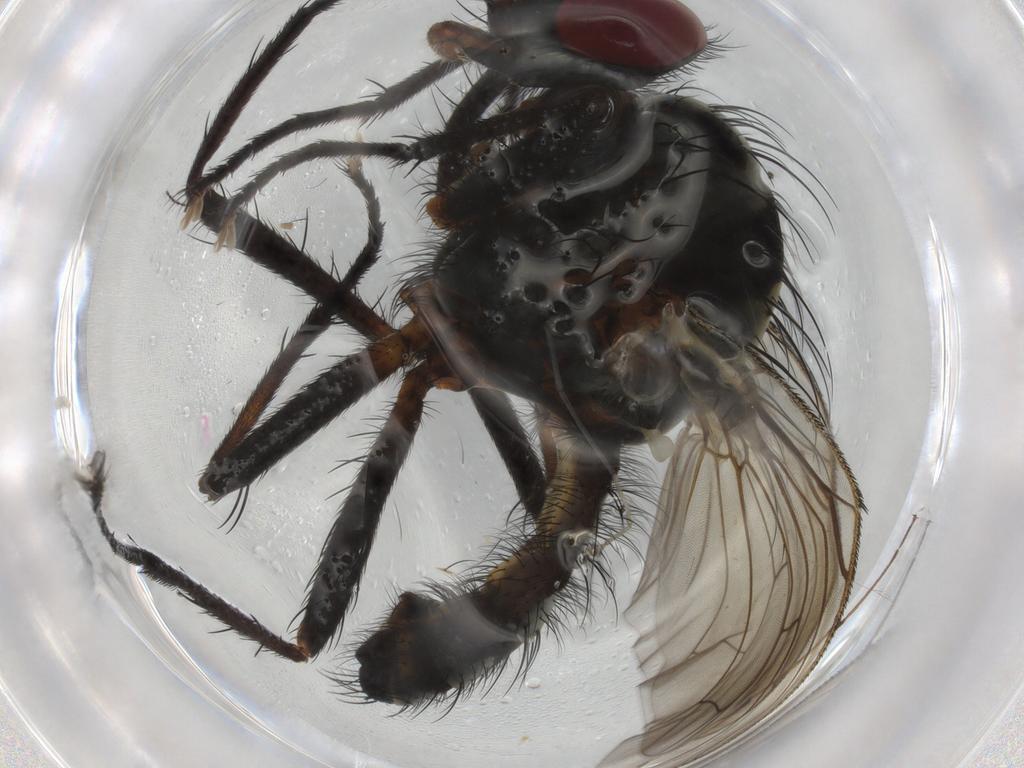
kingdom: Animalia
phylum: Arthropoda
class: Insecta
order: Diptera
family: Anthomyiidae
